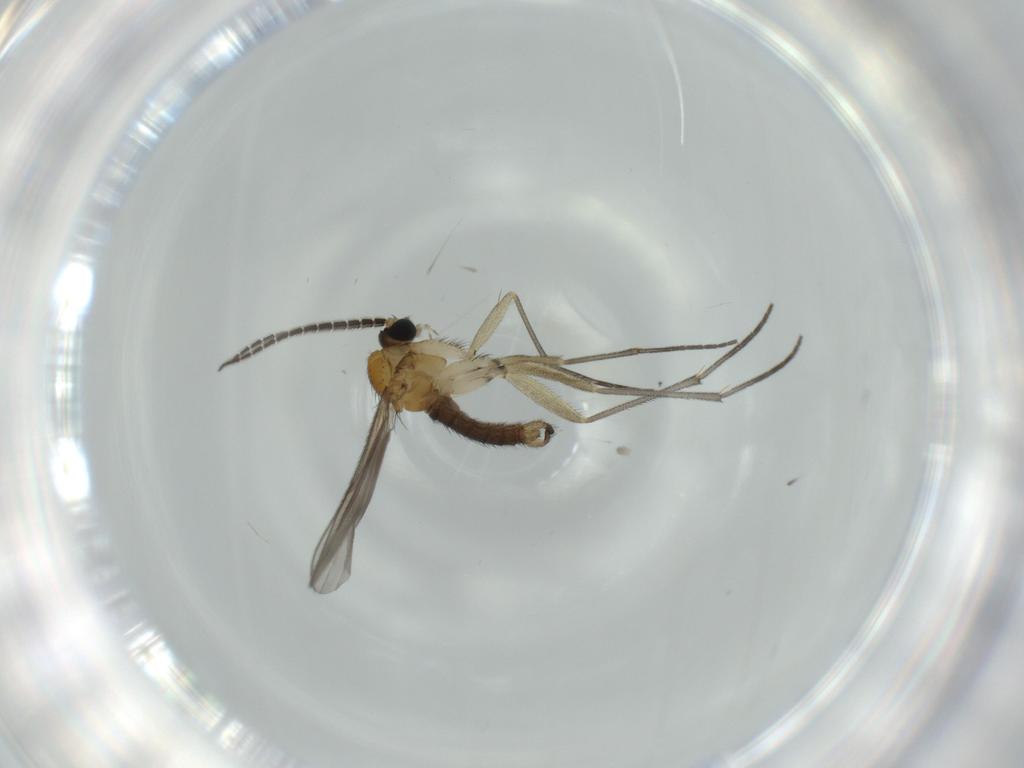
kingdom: Animalia
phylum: Arthropoda
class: Insecta
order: Diptera
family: Sciaridae
